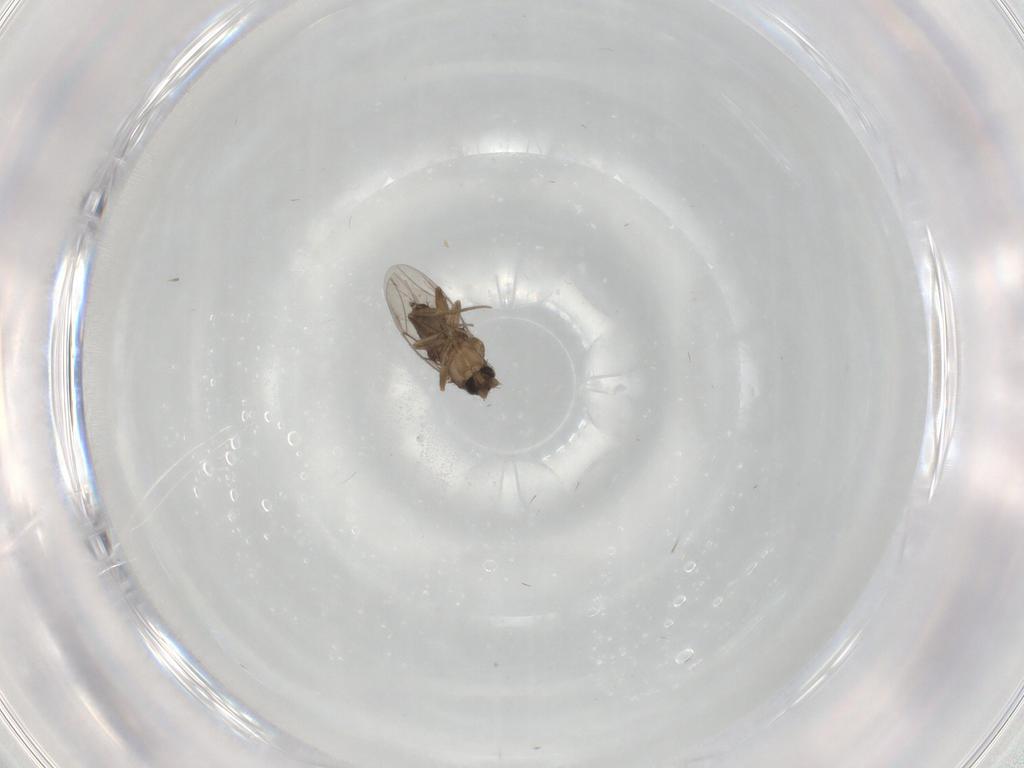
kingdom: Animalia
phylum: Arthropoda
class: Insecta
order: Diptera
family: Phoridae
